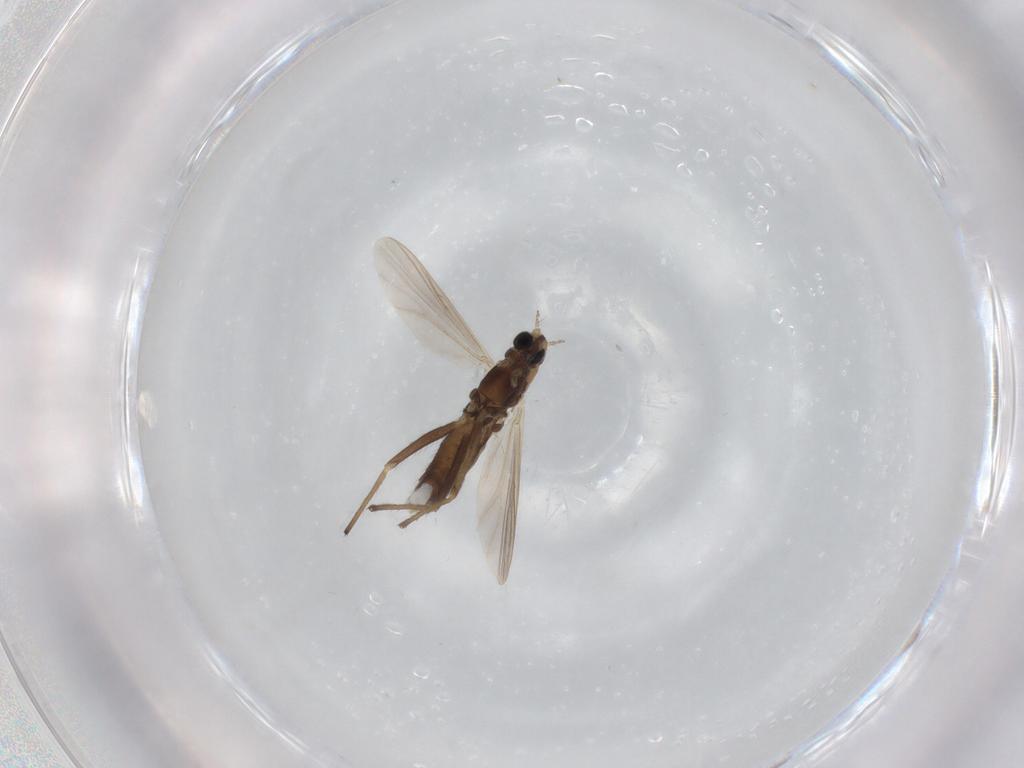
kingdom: Animalia
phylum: Arthropoda
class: Insecta
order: Diptera
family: Chironomidae
